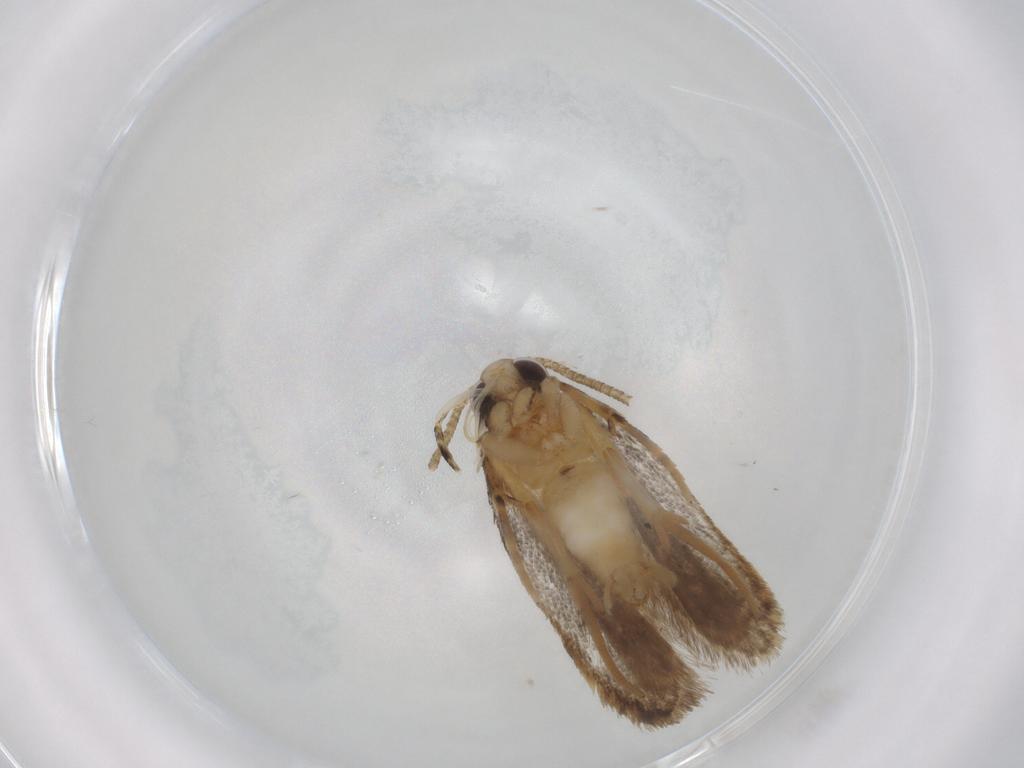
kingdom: Animalia
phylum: Arthropoda
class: Insecta
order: Lepidoptera
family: Autostichidae
